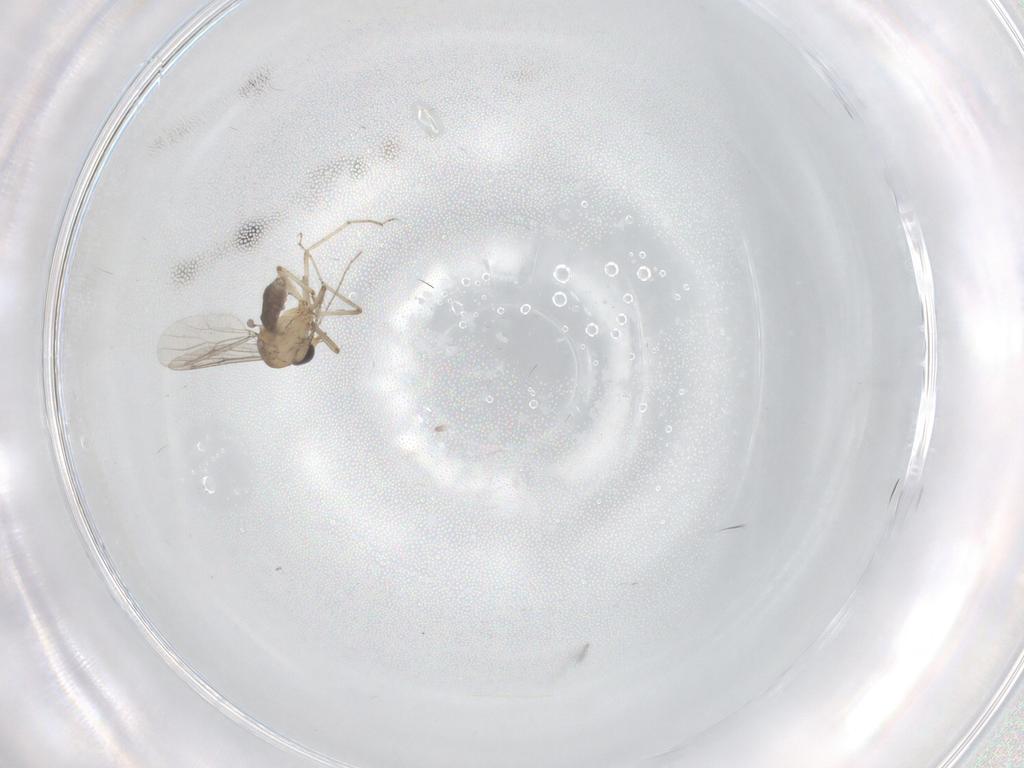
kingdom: Animalia
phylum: Arthropoda
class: Insecta
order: Diptera
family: Ceratopogonidae
